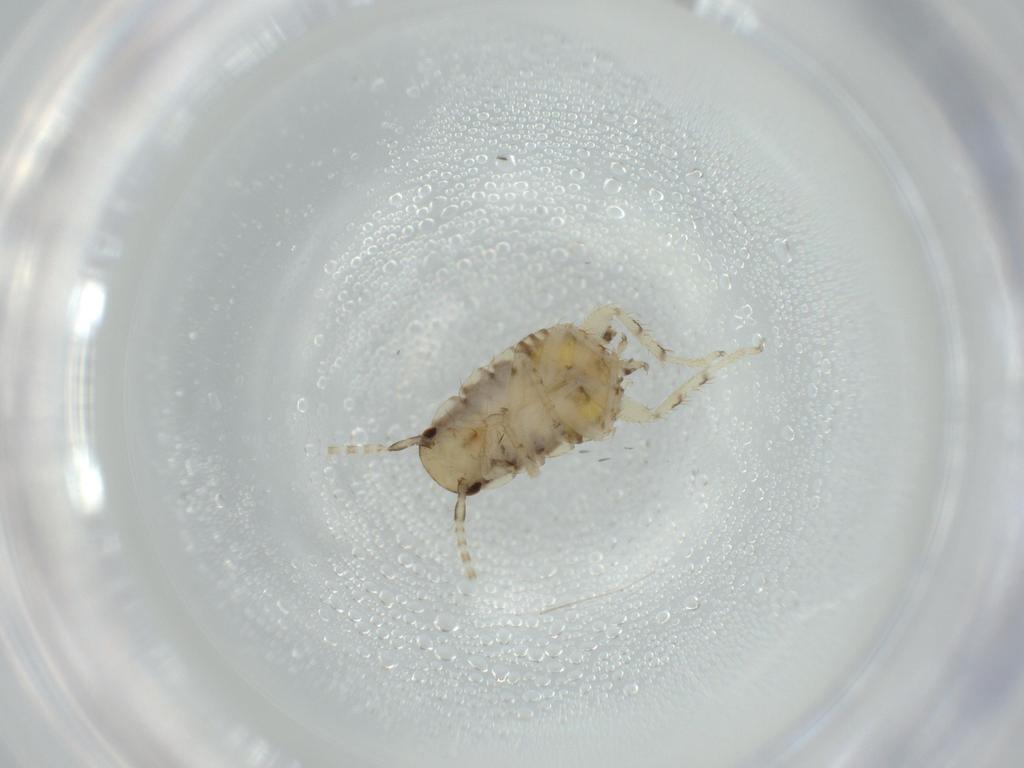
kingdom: Animalia
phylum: Arthropoda
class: Insecta
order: Blattodea
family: Ectobiidae
